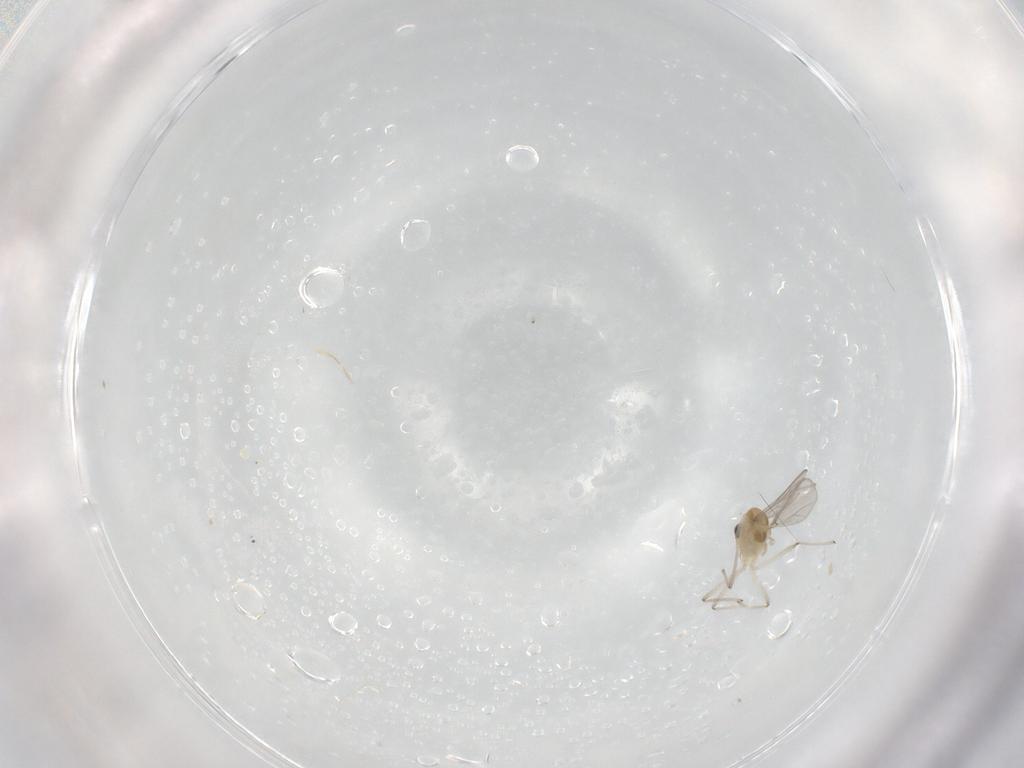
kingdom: Animalia
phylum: Arthropoda
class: Insecta
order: Diptera
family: Chironomidae
